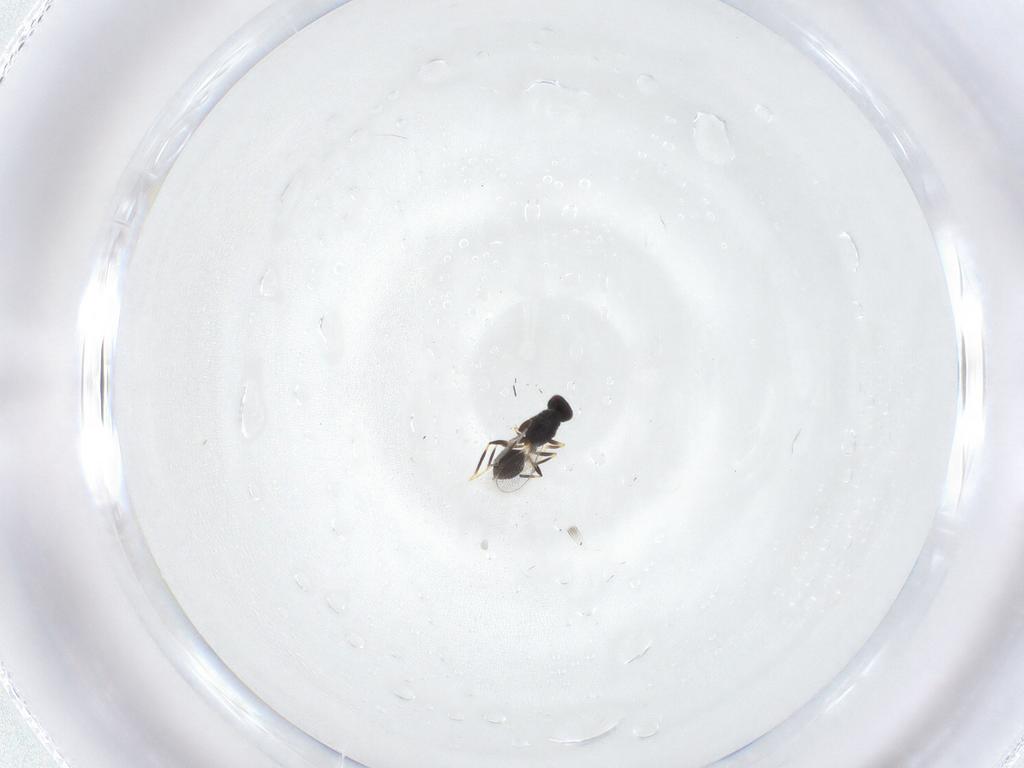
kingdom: Animalia
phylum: Arthropoda
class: Insecta
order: Hymenoptera
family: Mymaridae
